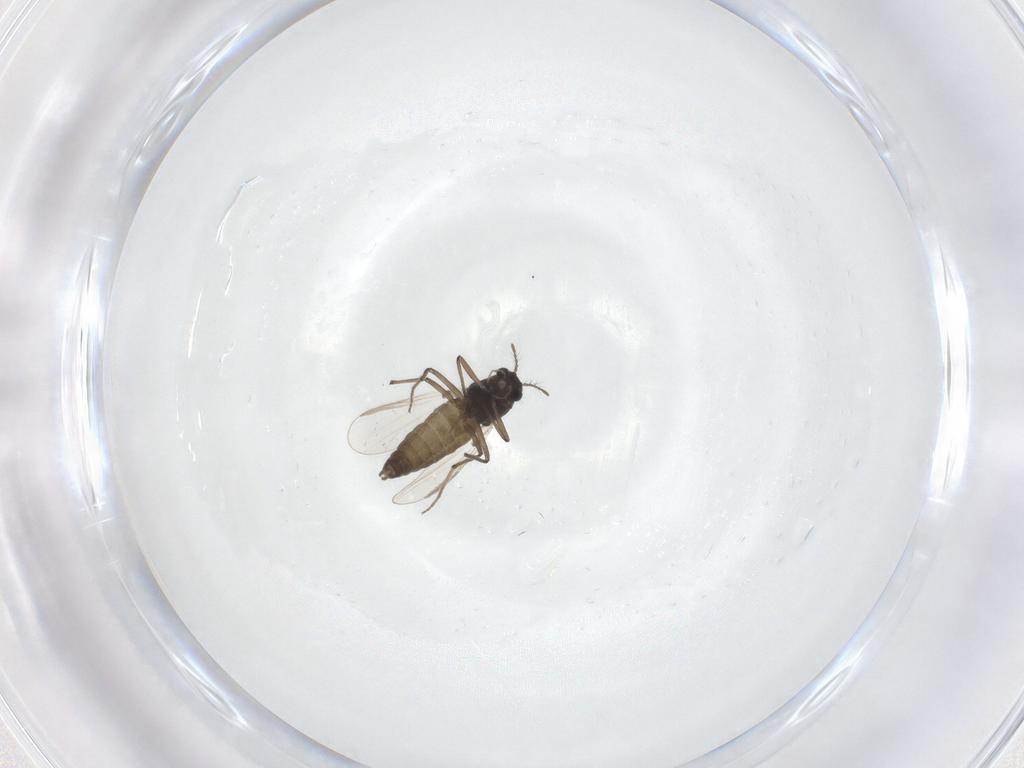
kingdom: Animalia
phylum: Arthropoda
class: Insecta
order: Diptera
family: Chironomidae
